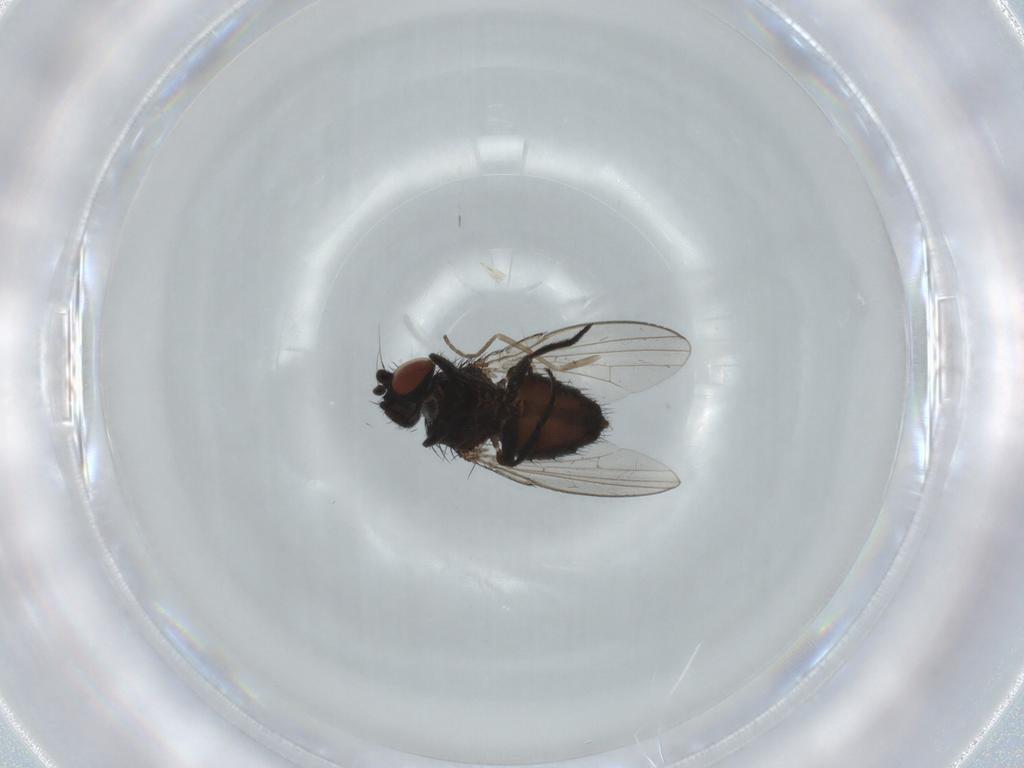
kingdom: Animalia
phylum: Arthropoda
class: Insecta
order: Diptera
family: Milichiidae
